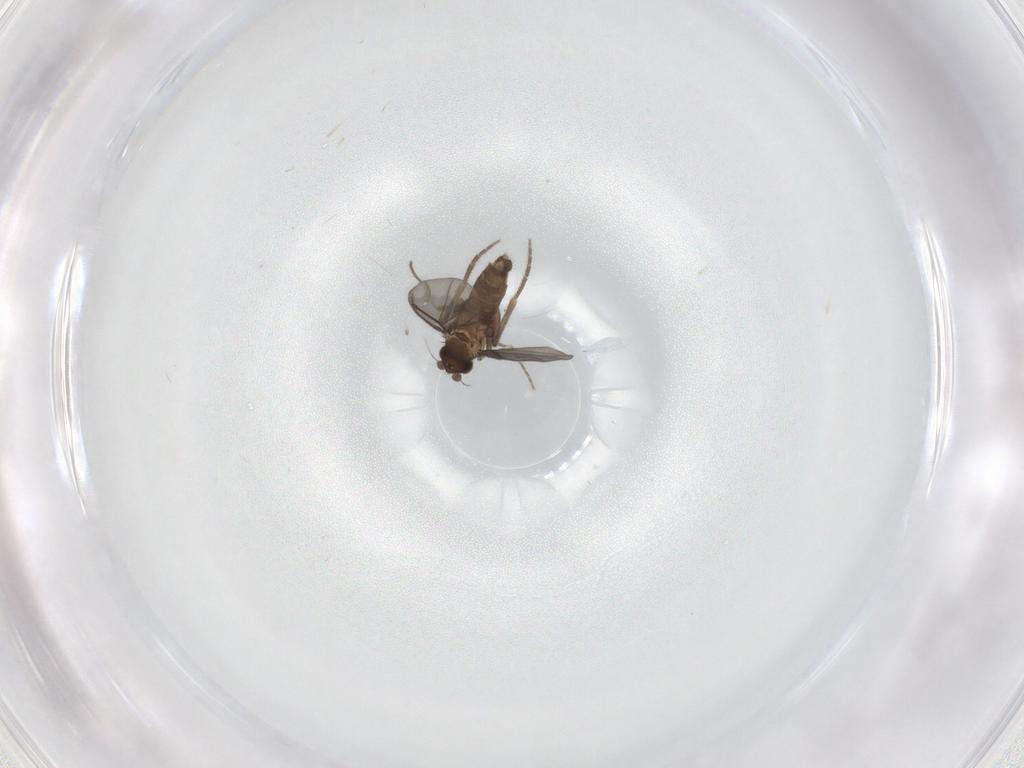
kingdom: Animalia
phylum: Arthropoda
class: Insecta
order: Diptera
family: Phoridae
